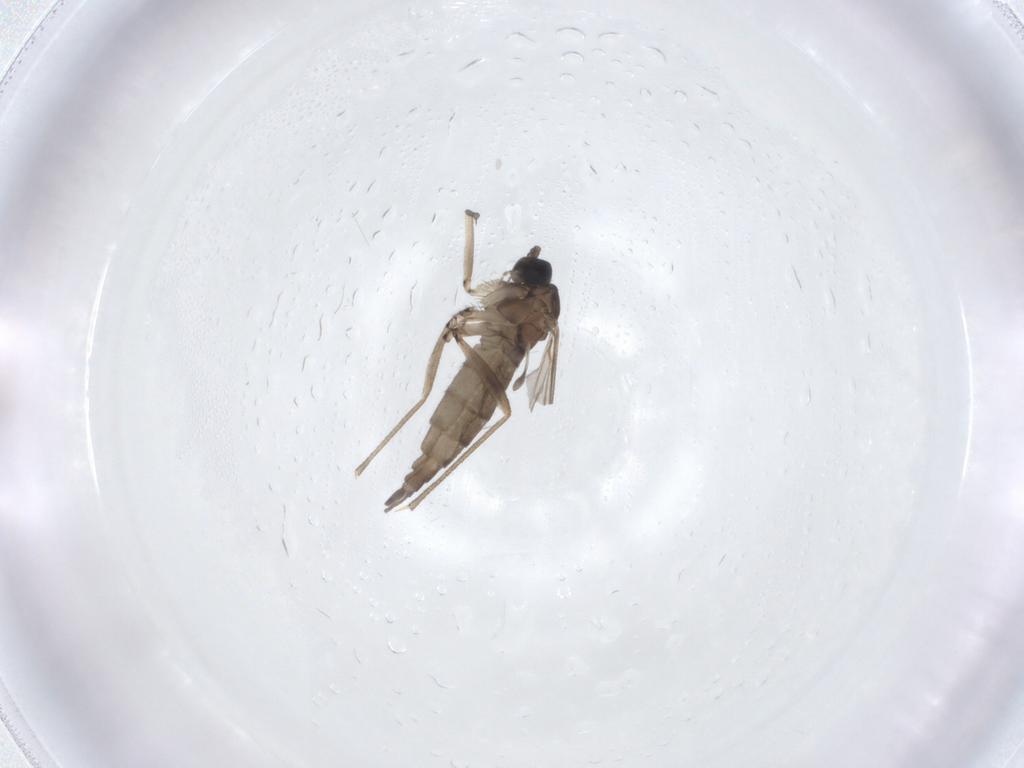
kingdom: Animalia
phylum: Arthropoda
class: Insecta
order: Diptera
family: Sciaridae
